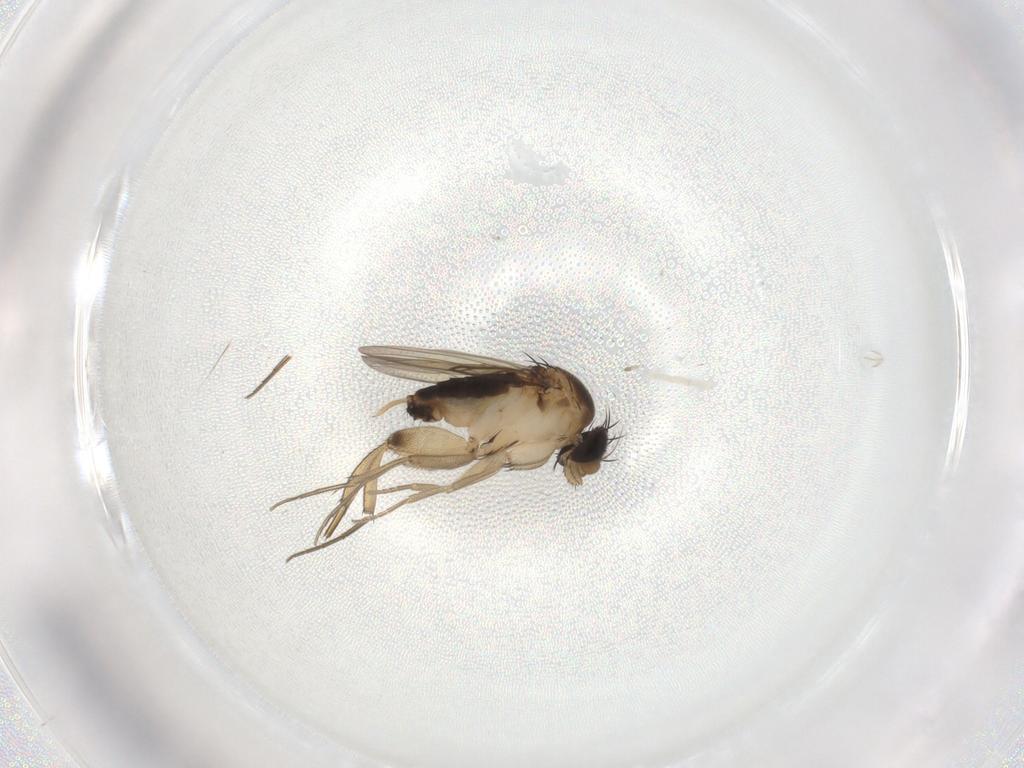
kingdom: Animalia
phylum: Arthropoda
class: Insecta
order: Diptera
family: Phoridae
